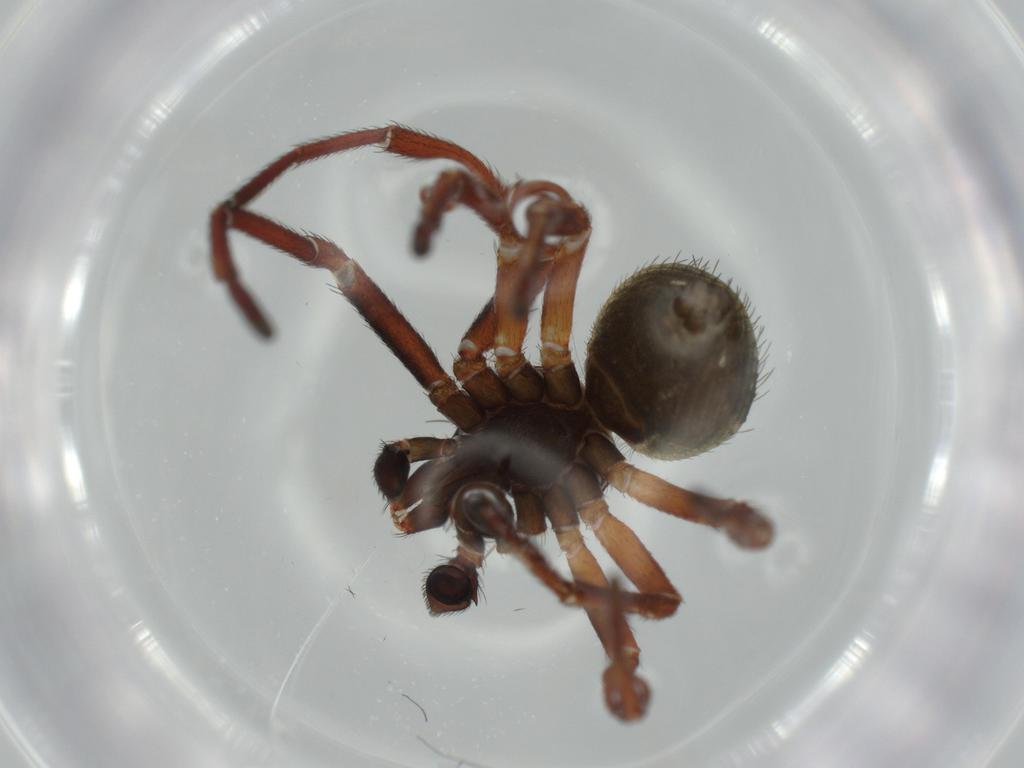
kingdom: Animalia
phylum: Arthropoda
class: Arachnida
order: Araneae
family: Thomisidae
